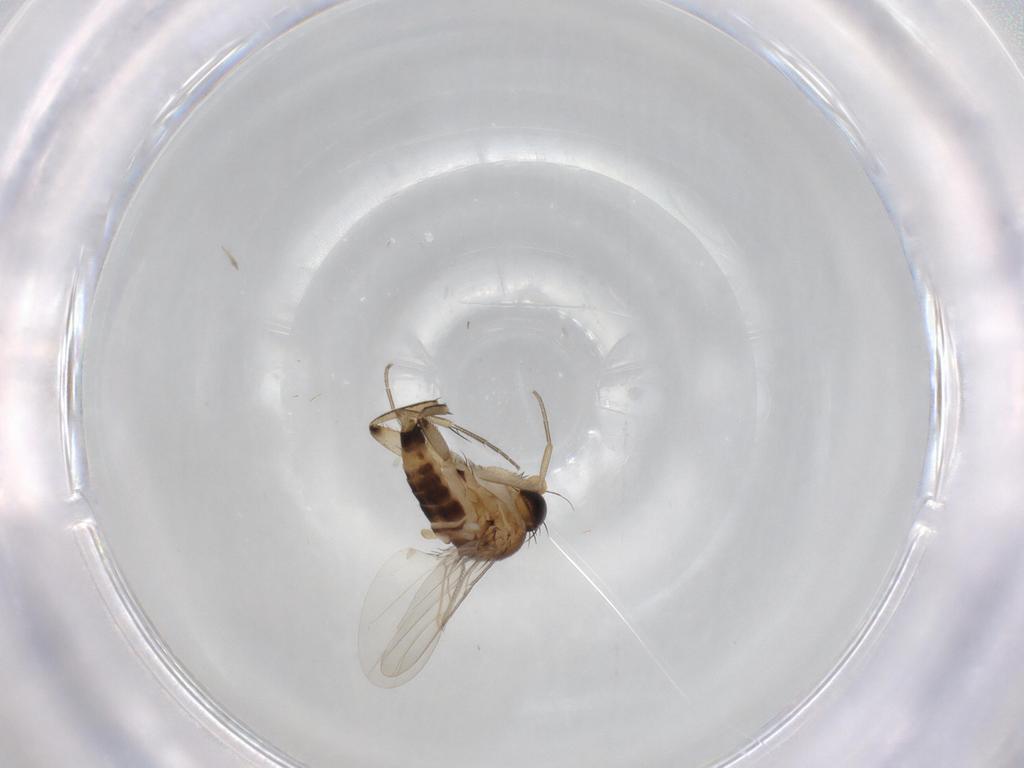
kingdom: Animalia
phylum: Arthropoda
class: Insecta
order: Diptera
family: Phoridae
